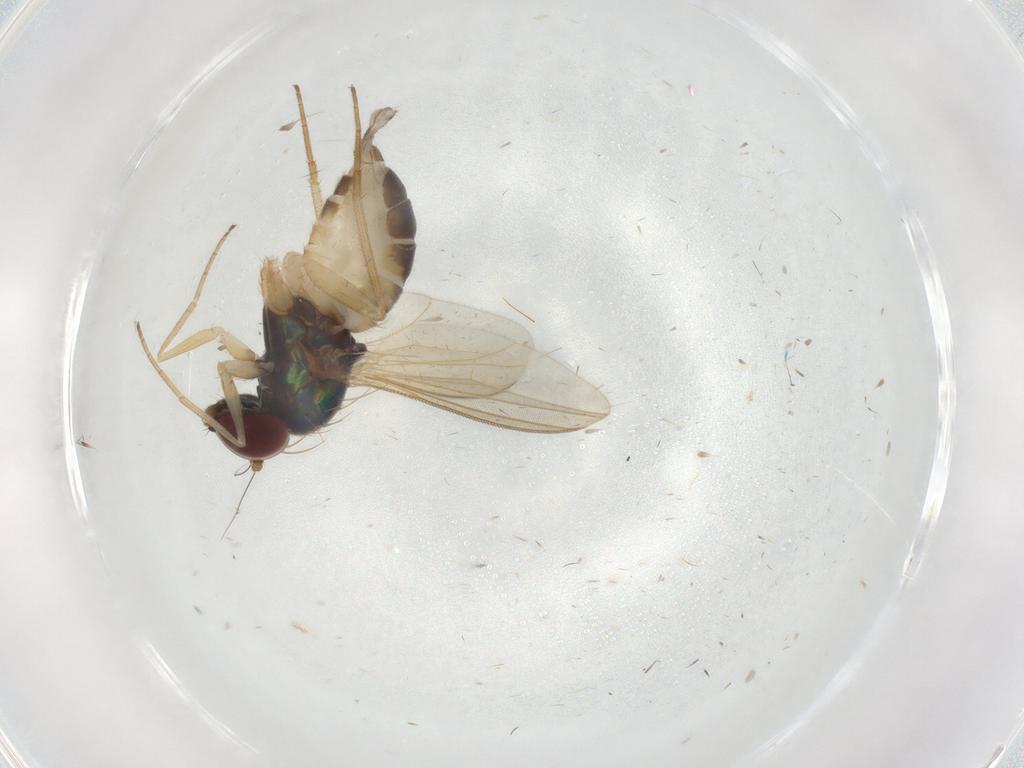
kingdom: Animalia
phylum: Arthropoda
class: Insecta
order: Diptera
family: Dolichopodidae
